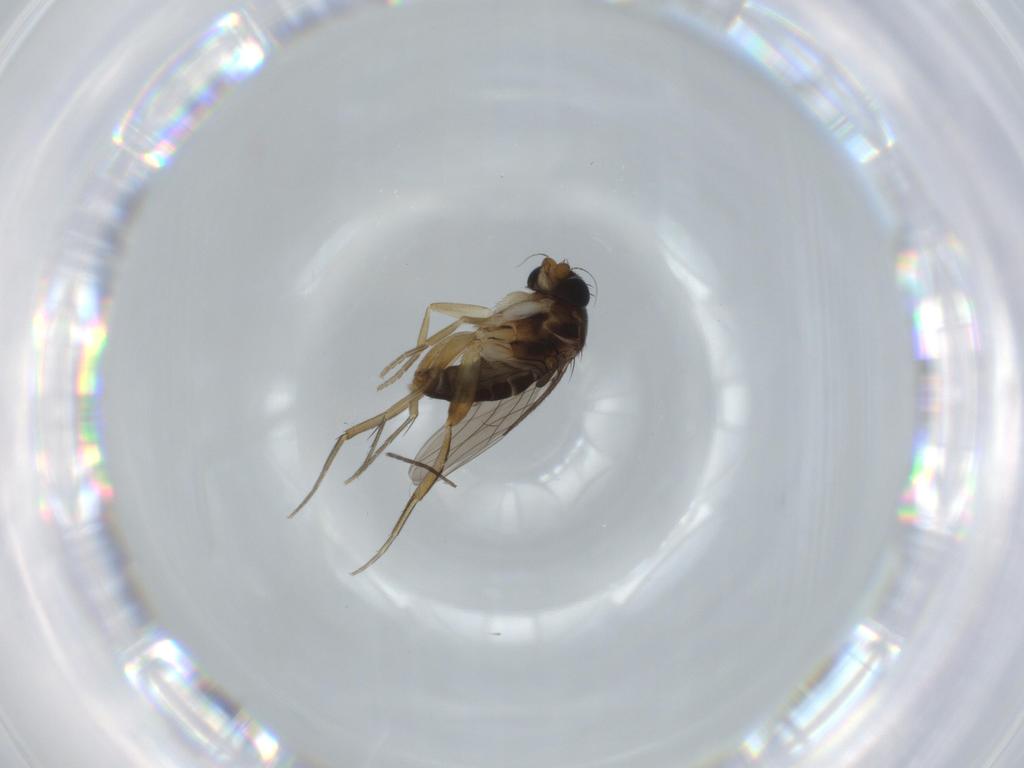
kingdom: Animalia
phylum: Arthropoda
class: Insecta
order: Diptera
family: Phoridae
